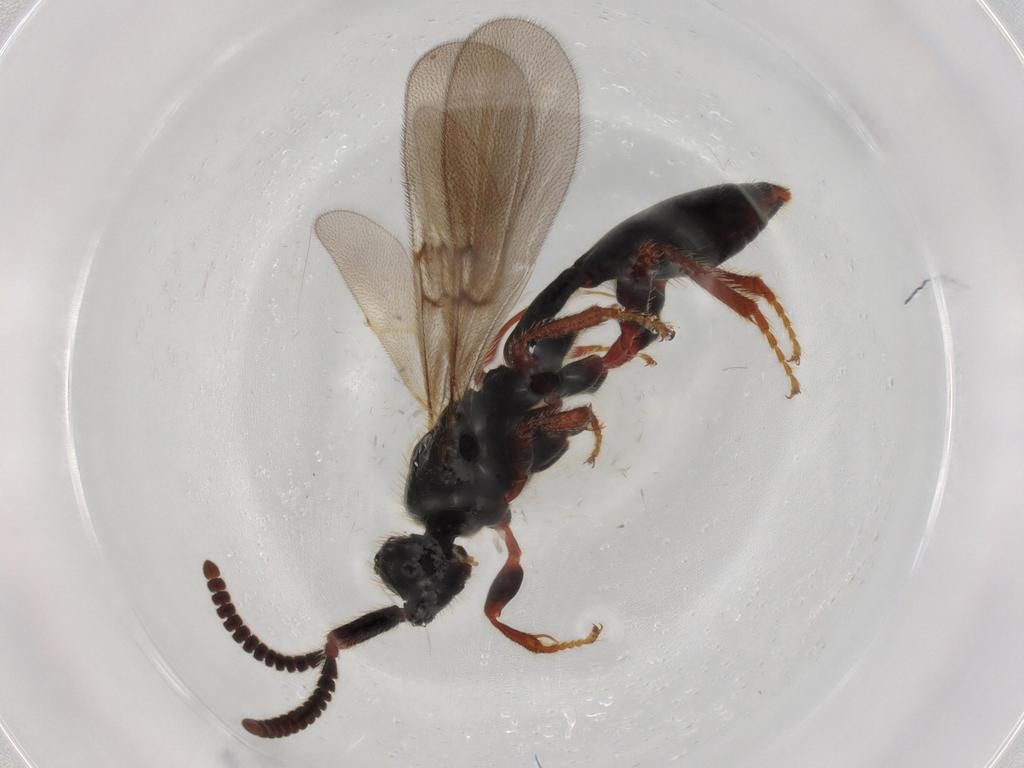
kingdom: Animalia
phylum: Arthropoda
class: Insecta
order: Hymenoptera
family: Diapriidae
